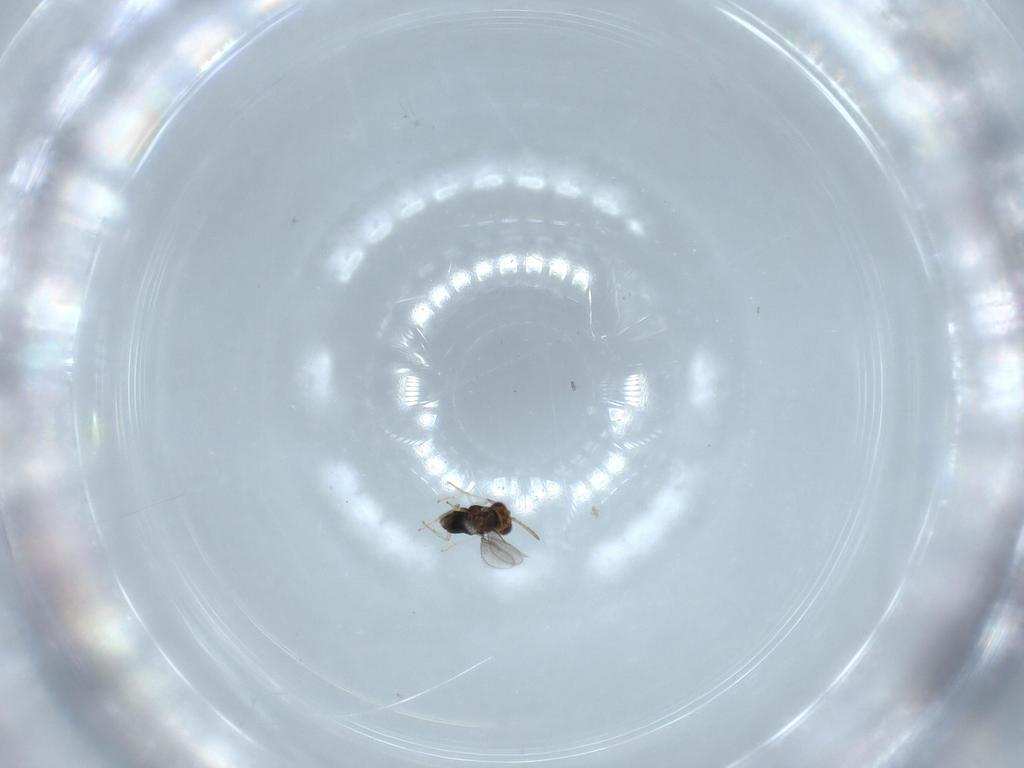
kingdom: Animalia
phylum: Arthropoda
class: Insecta
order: Hymenoptera
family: Aphelinidae
